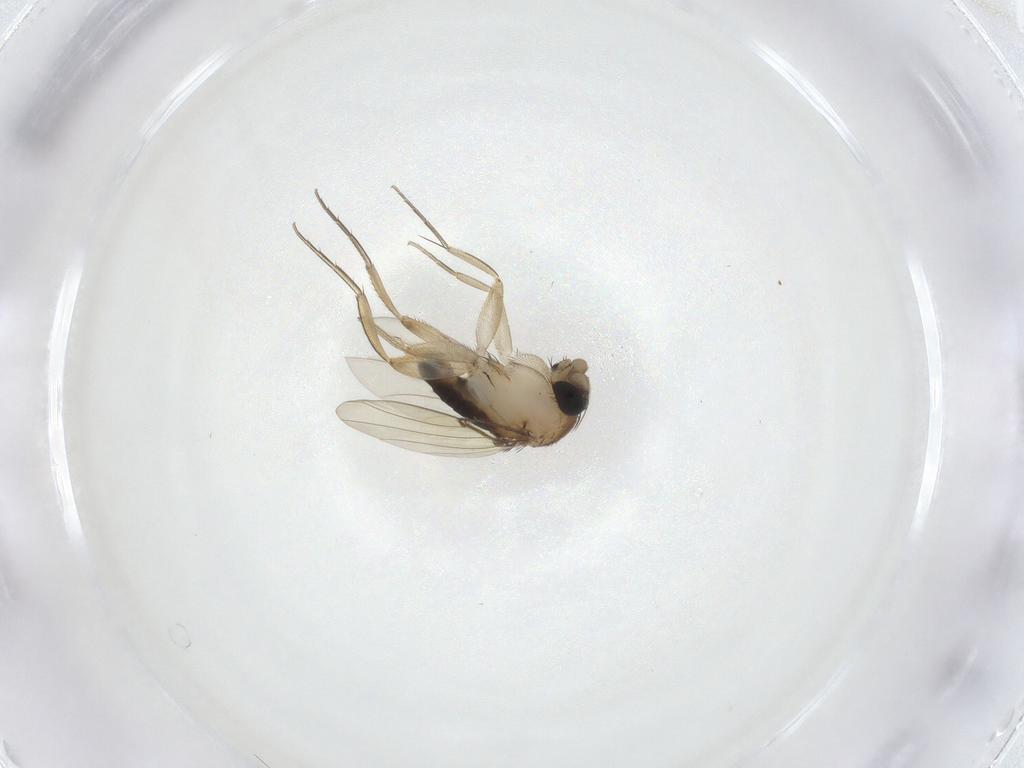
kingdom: Animalia
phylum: Arthropoda
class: Insecta
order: Diptera
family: Phoridae
